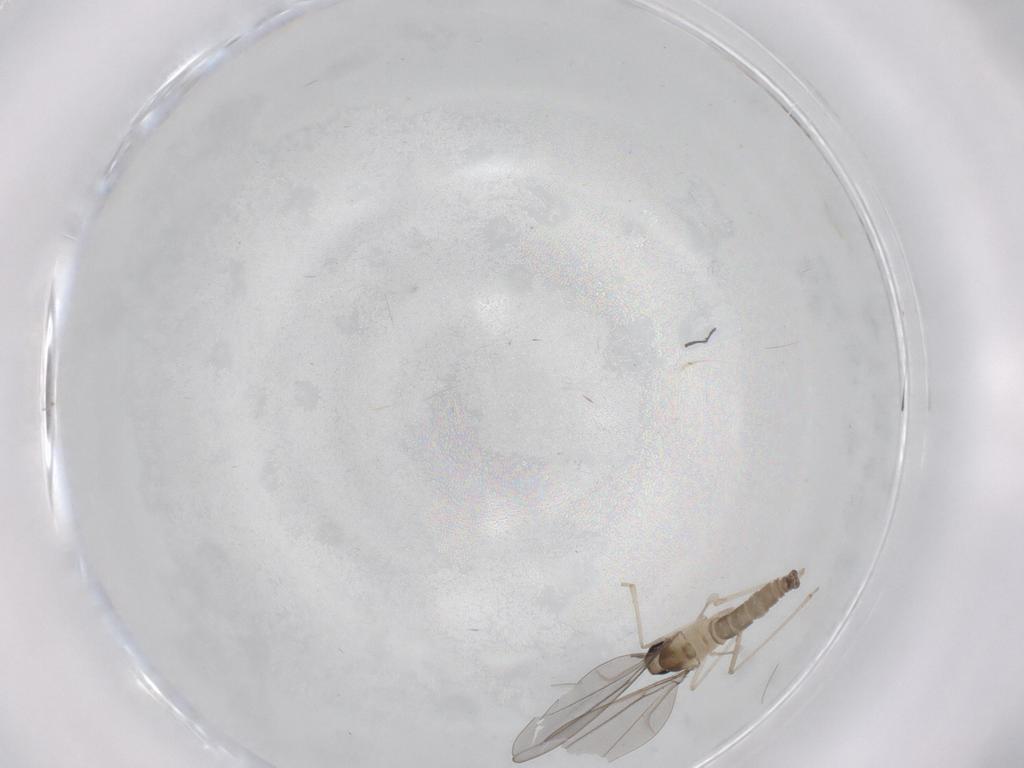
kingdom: Animalia
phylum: Arthropoda
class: Insecta
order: Diptera
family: Cecidomyiidae
